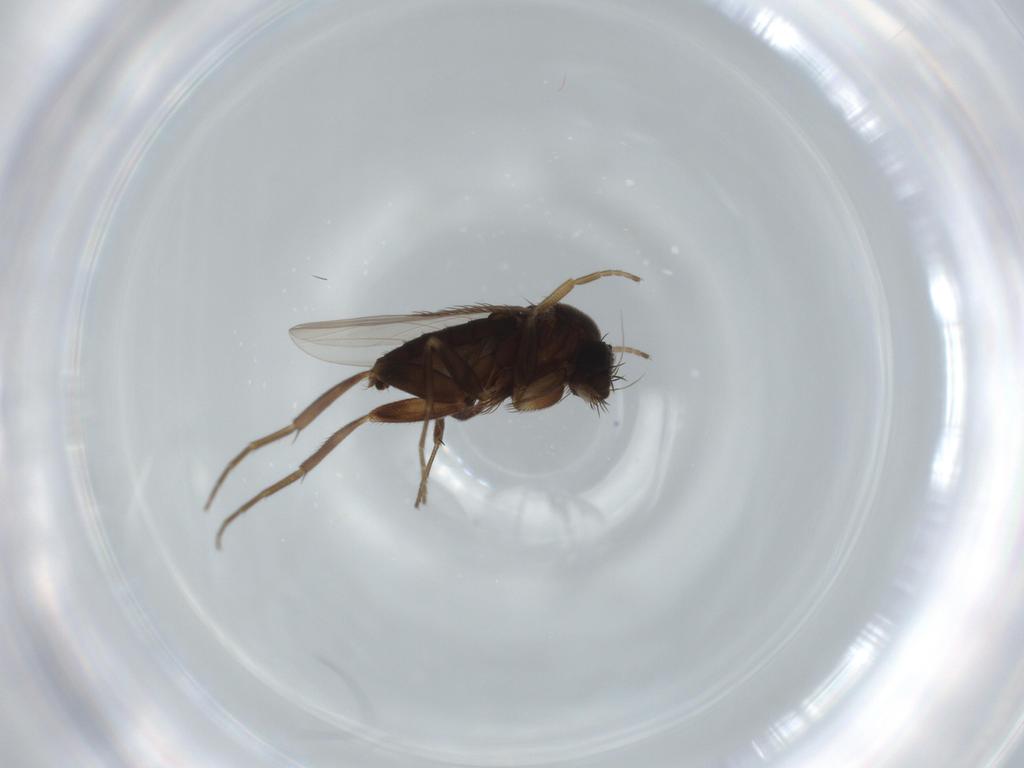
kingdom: Animalia
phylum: Arthropoda
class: Insecta
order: Diptera
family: Phoridae
